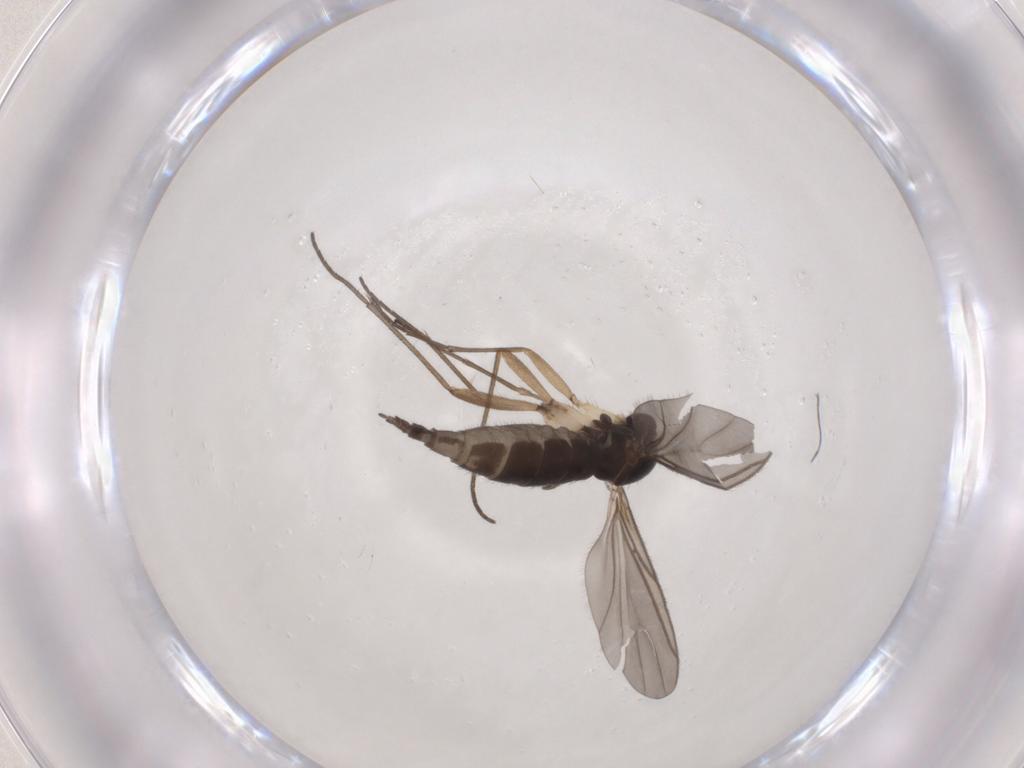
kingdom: Animalia
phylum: Arthropoda
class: Insecta
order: Diptera
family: Sciaridae
